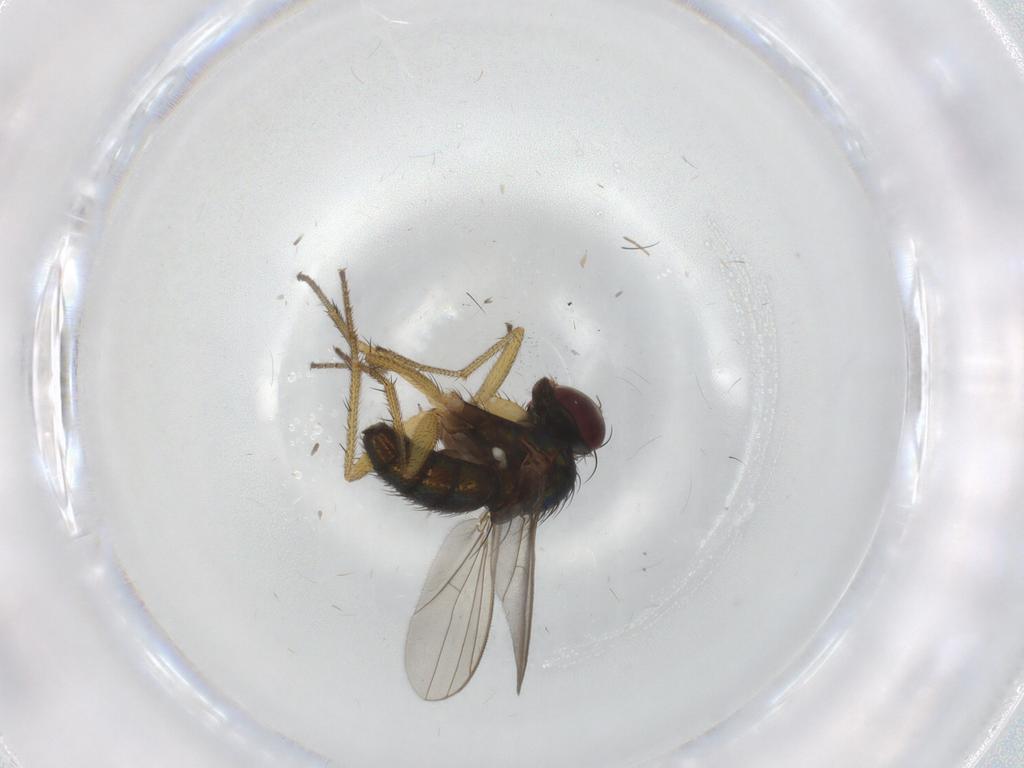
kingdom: Animalia
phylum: Arthropoda
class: Insecta
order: Diptera
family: Dolichopodidae
